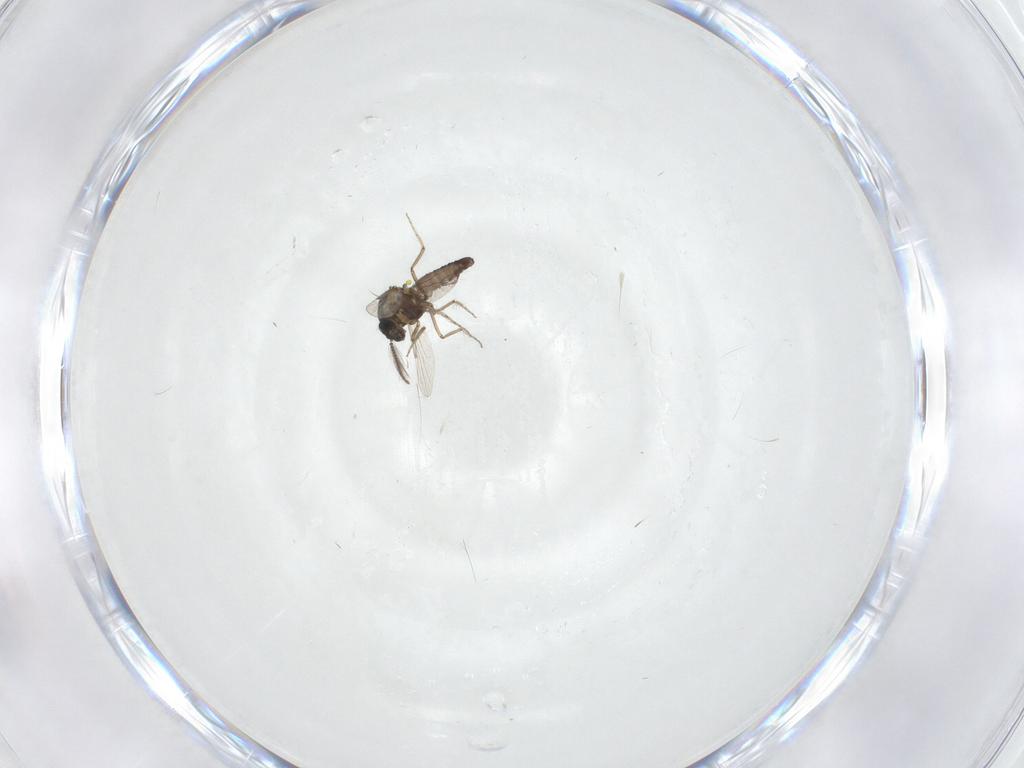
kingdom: Animalia
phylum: Arthropoda
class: Insecta
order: Diptera
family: Ceratopogonidae
